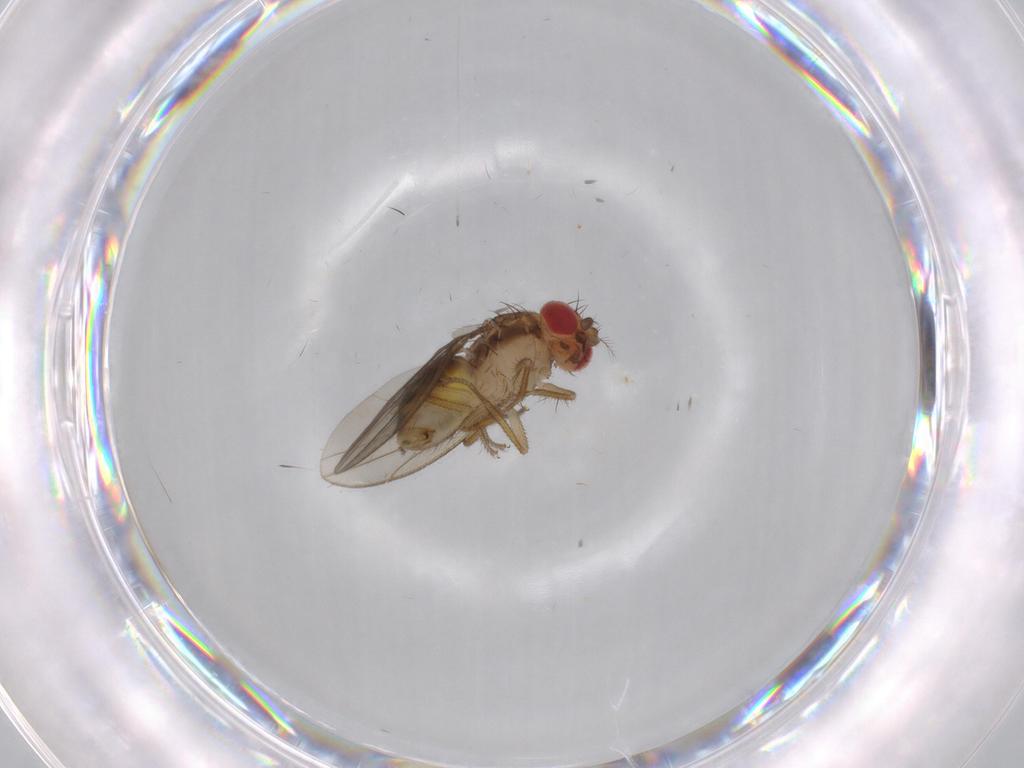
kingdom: Animalia
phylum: Arthropoda
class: Insecta
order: Diptera
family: Drosophilidae
